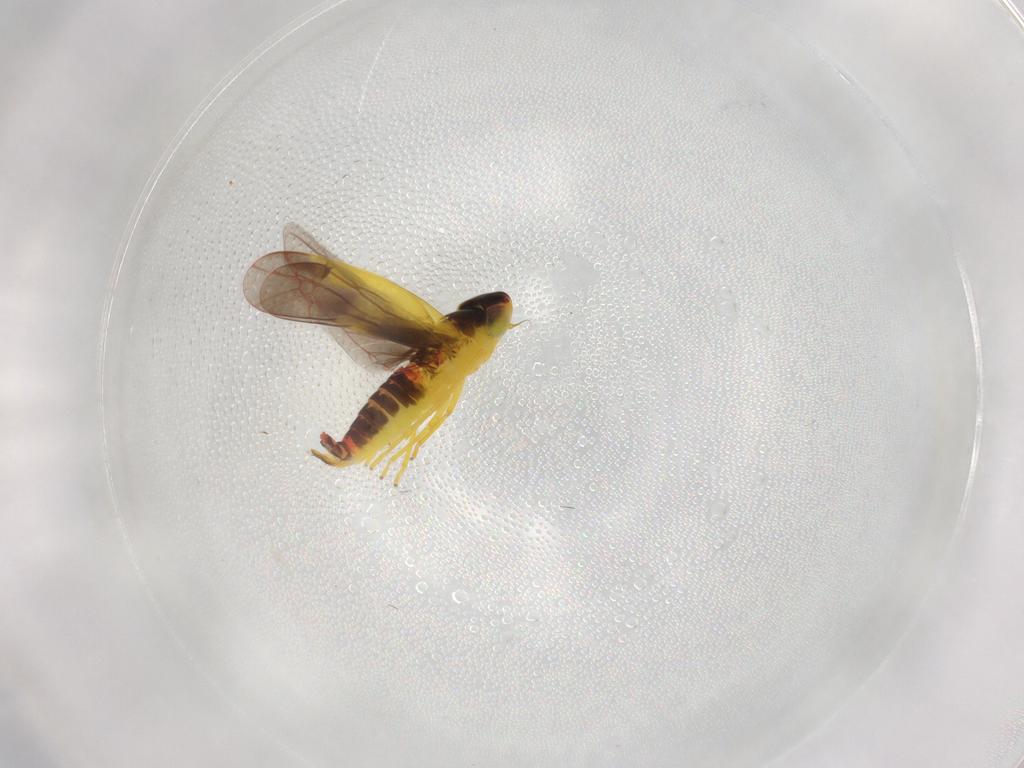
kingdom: Animalia
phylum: Arthropoda
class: Insecta
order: Hemiptera
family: Cicadellidae
